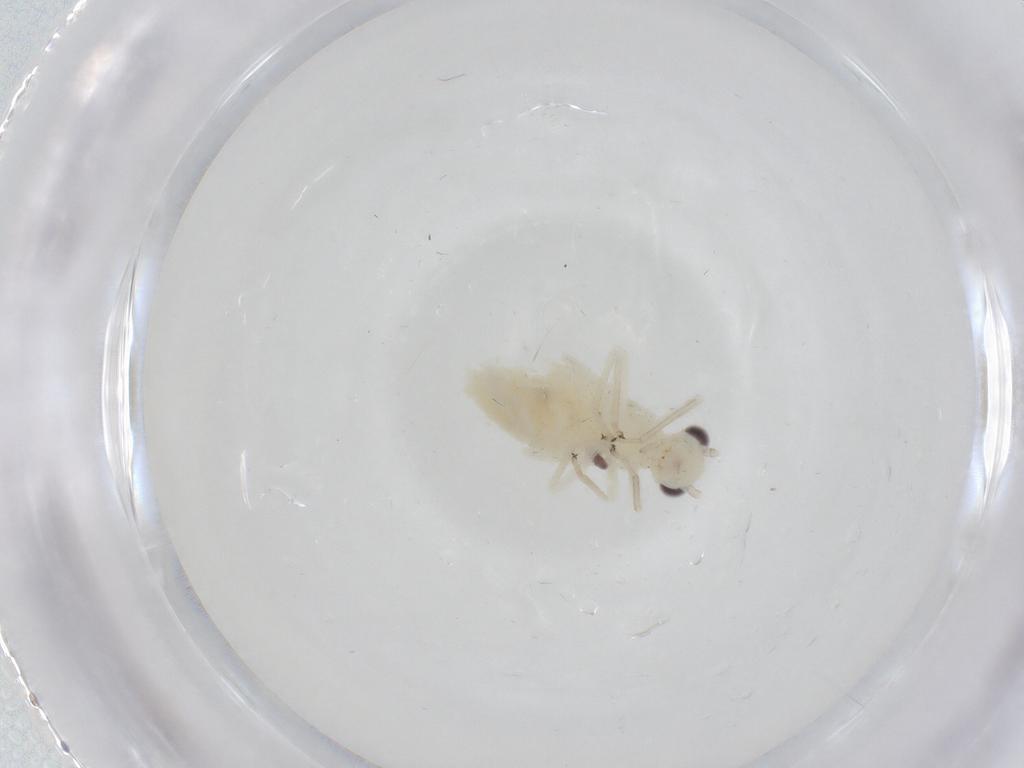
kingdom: Animalia
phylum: Arthropoda
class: Insecta
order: Psocodea
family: Caeciliusidae
